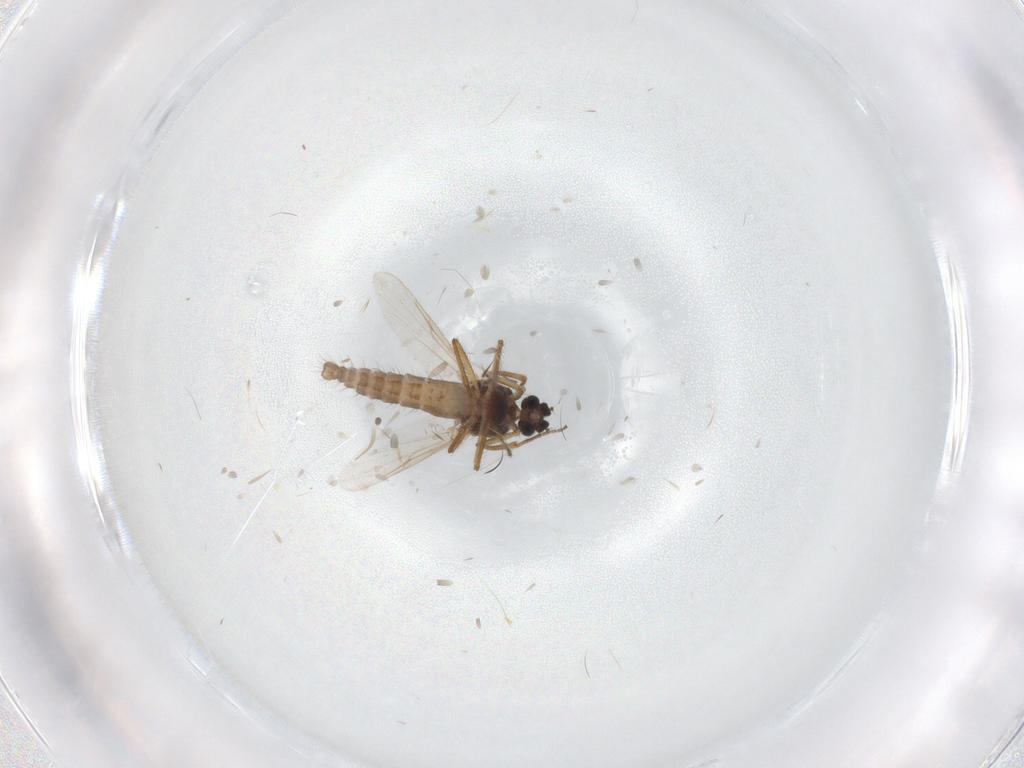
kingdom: Animalia
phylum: Arthropoda
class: Insecta
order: Diptera
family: Ceratopogonidae
